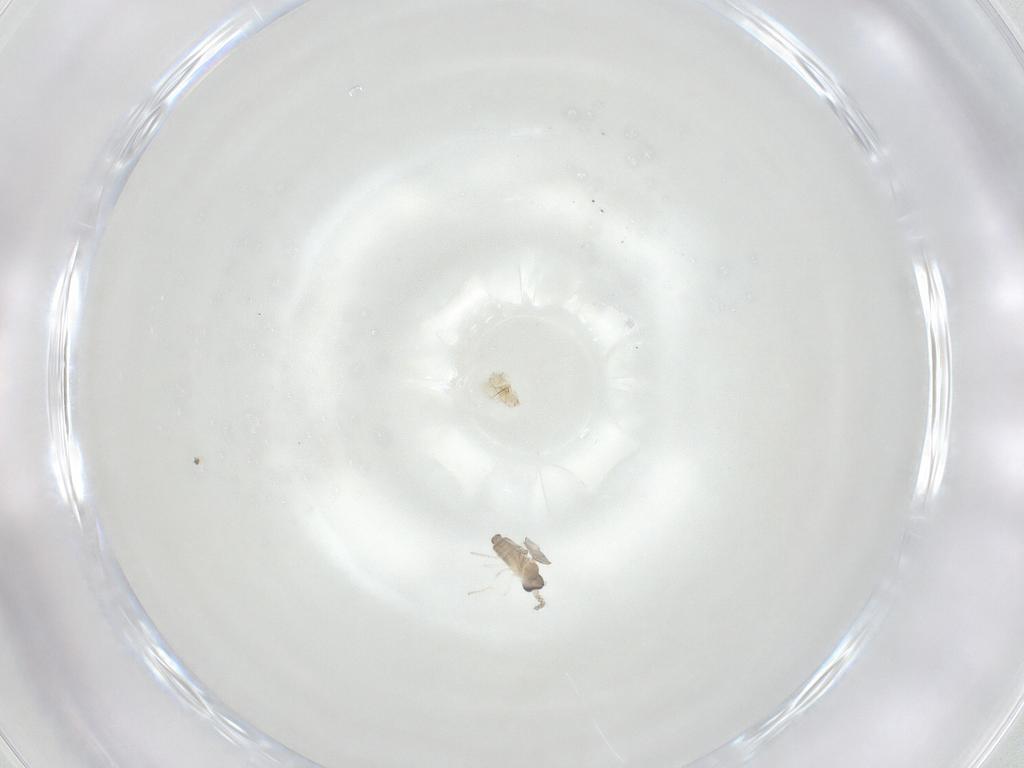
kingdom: Animalia
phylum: Arthropoda
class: Insecta
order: Diptera
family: Cecidomyiidae
